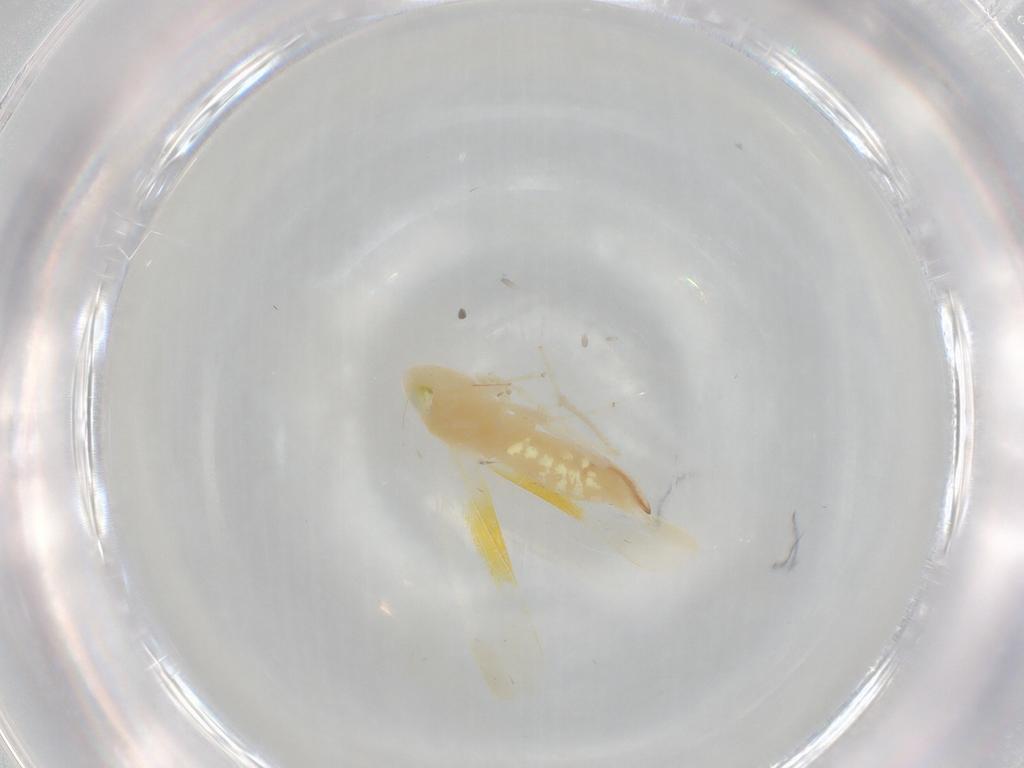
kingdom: Animalia
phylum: Arthropoda
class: Insecta
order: Hemiptera
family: Cicadellidae
